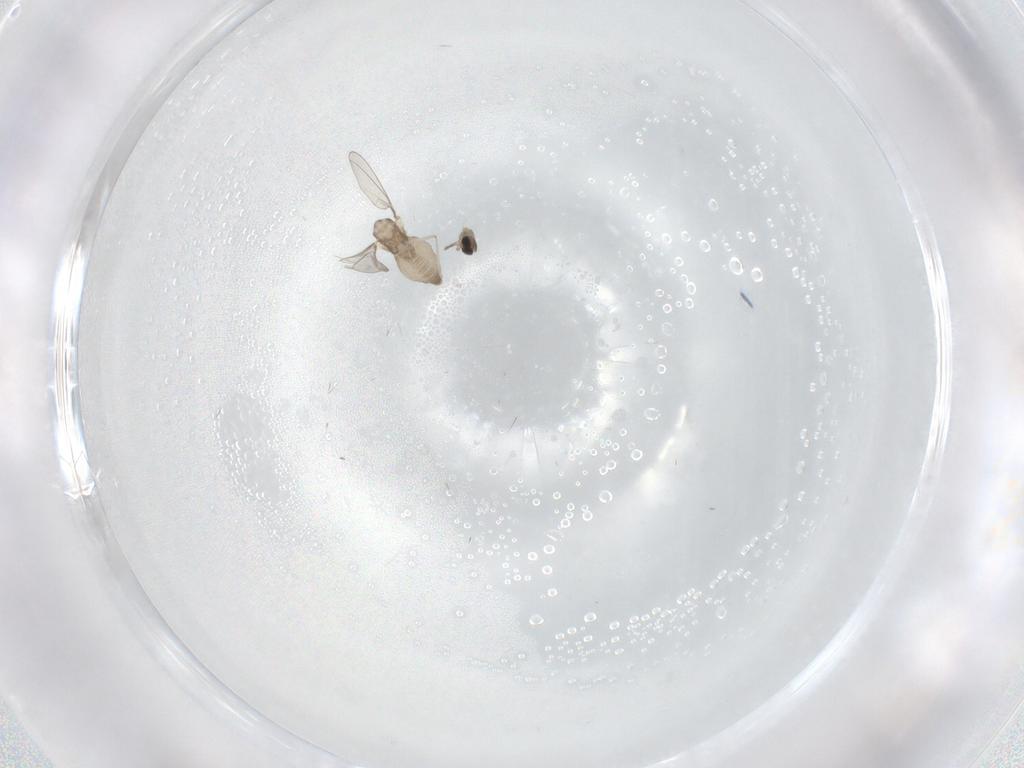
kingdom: Animalia
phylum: Arthropoda
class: Insecta
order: Diptera
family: Cecidomyiidae
